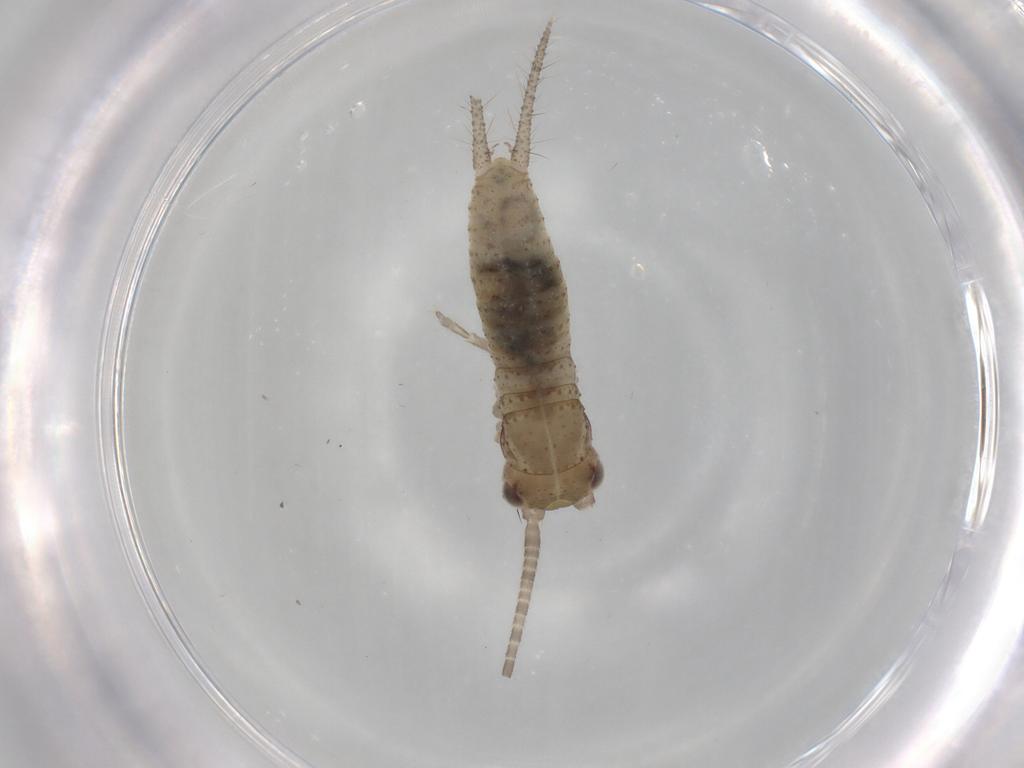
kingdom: Animalia
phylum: Arthropoda
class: Insecta
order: Orthoptera
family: Gryllidae
